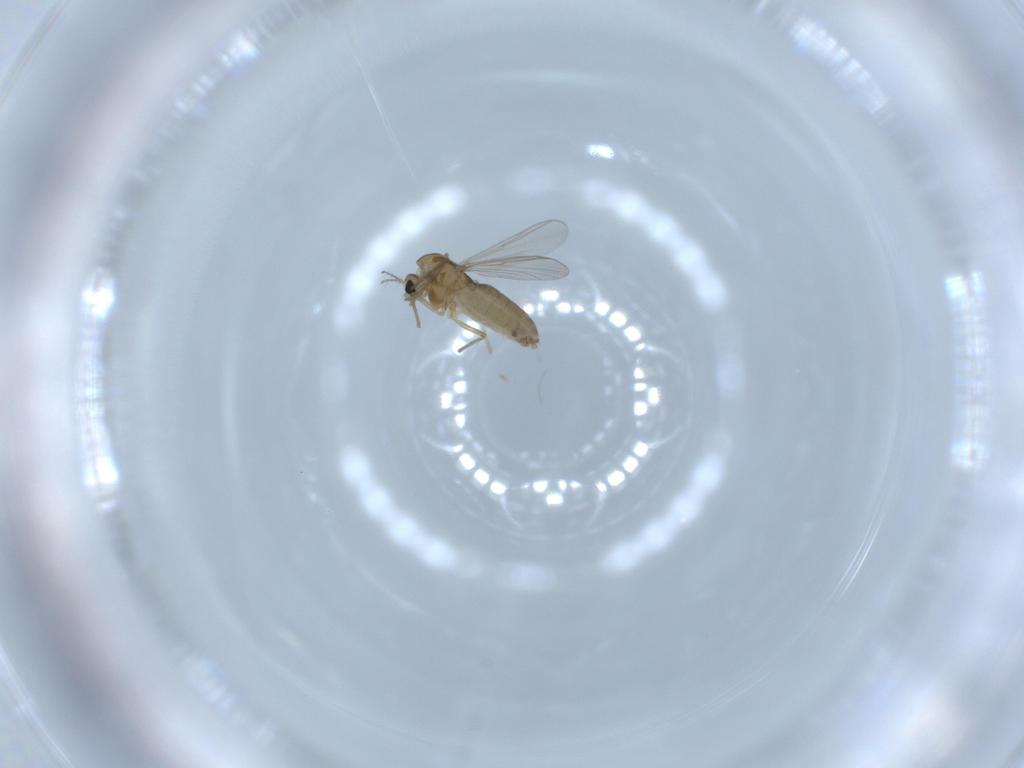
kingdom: Animalia
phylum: Arthropoda
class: Insecta
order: Diptera
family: Chironomidae
